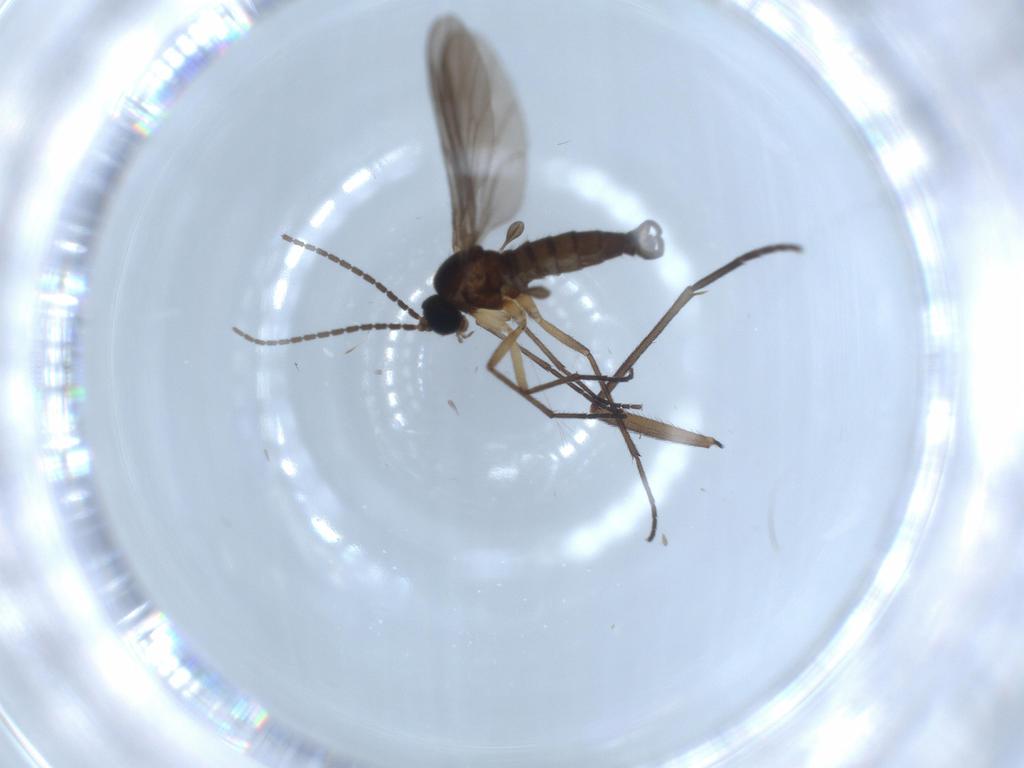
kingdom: Animalia
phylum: Arthropoda
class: Insecta
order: Diptera
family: Sciaridae
